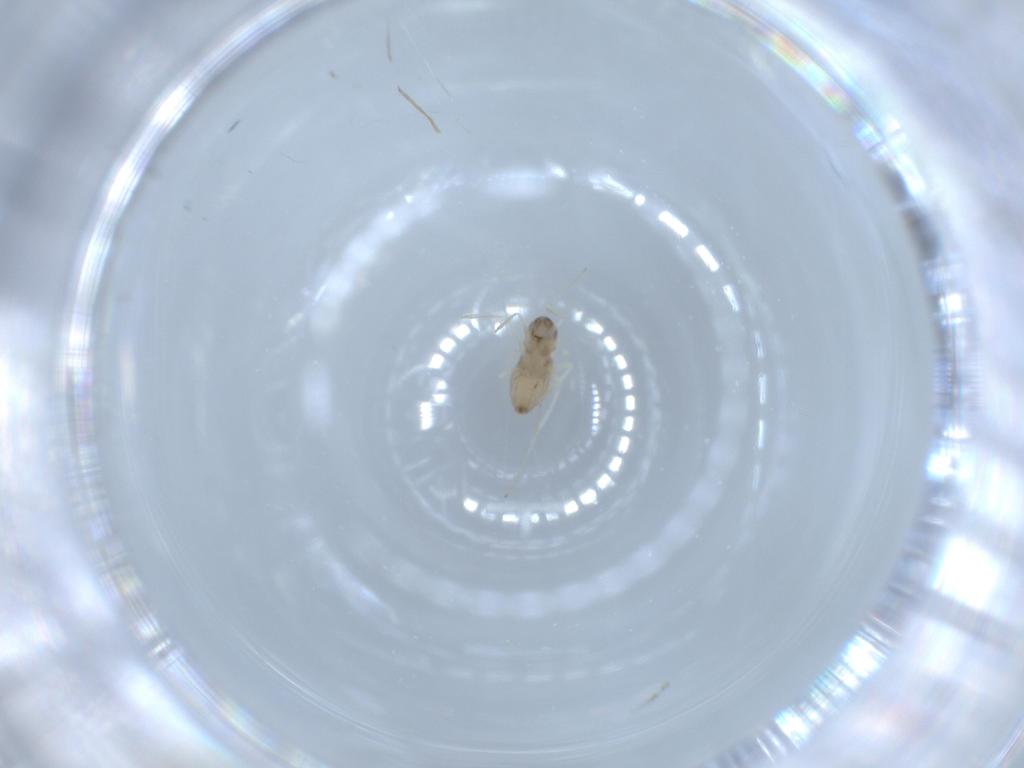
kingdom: Animalia
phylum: Arthropoda
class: Insecta
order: Diptera
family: Cecidomyiidae
